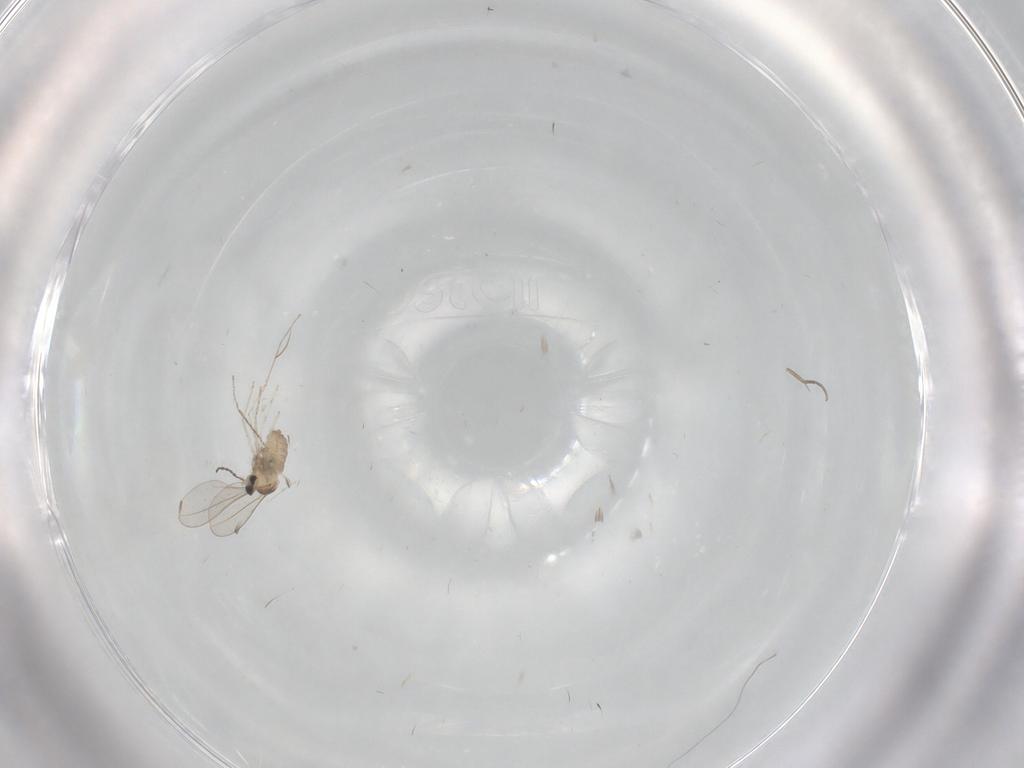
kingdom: Animalia
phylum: Arthropoda
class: Insecta
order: Diptera
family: Cecidomyiidae
